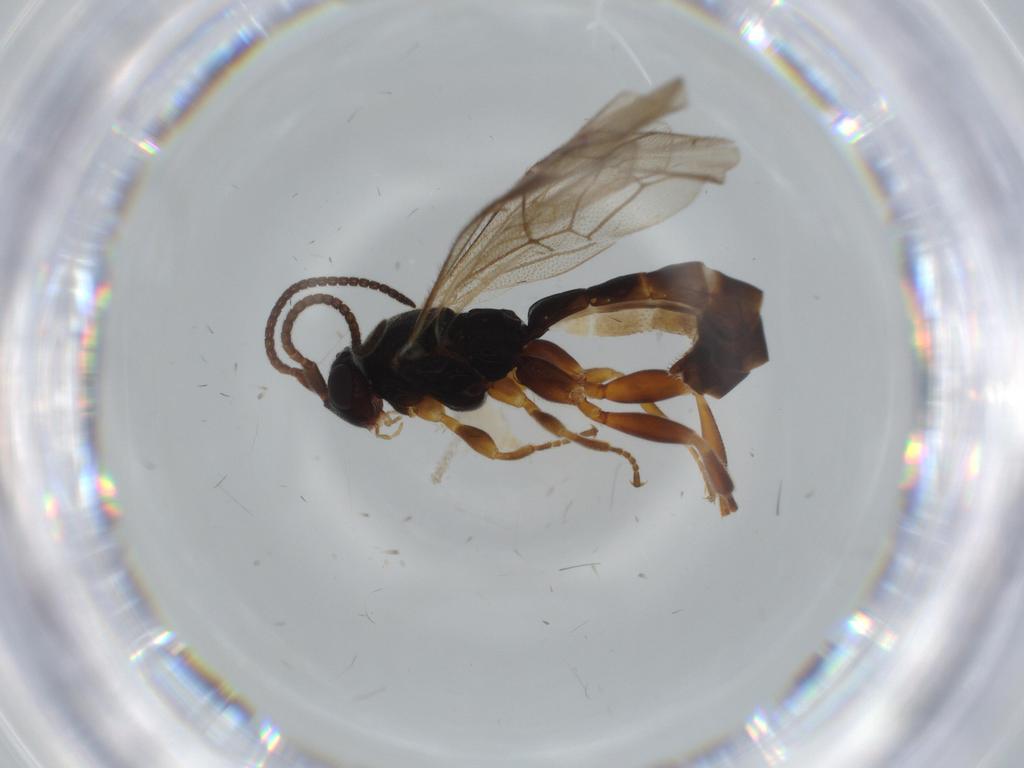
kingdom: Animalia
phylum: Arthropoda
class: Insecta
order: Hymenoptera
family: Ichneumonidae
